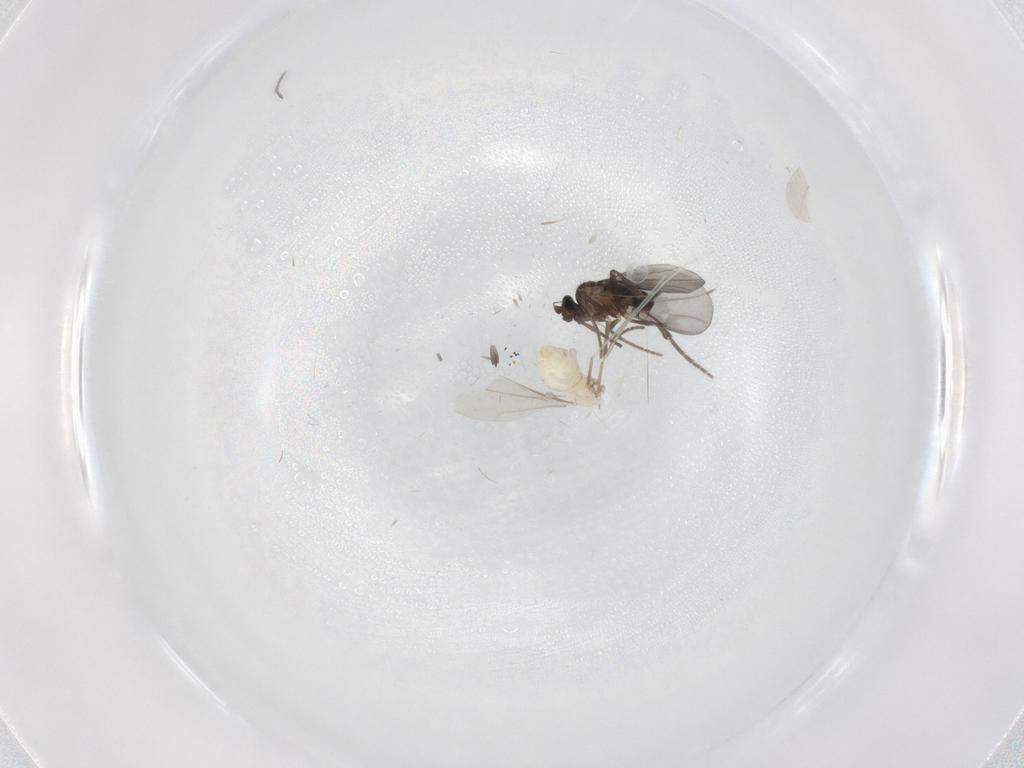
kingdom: Animalia
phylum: Arthropoda
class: Insecta
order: Diptera
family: Cecidomyiidae
